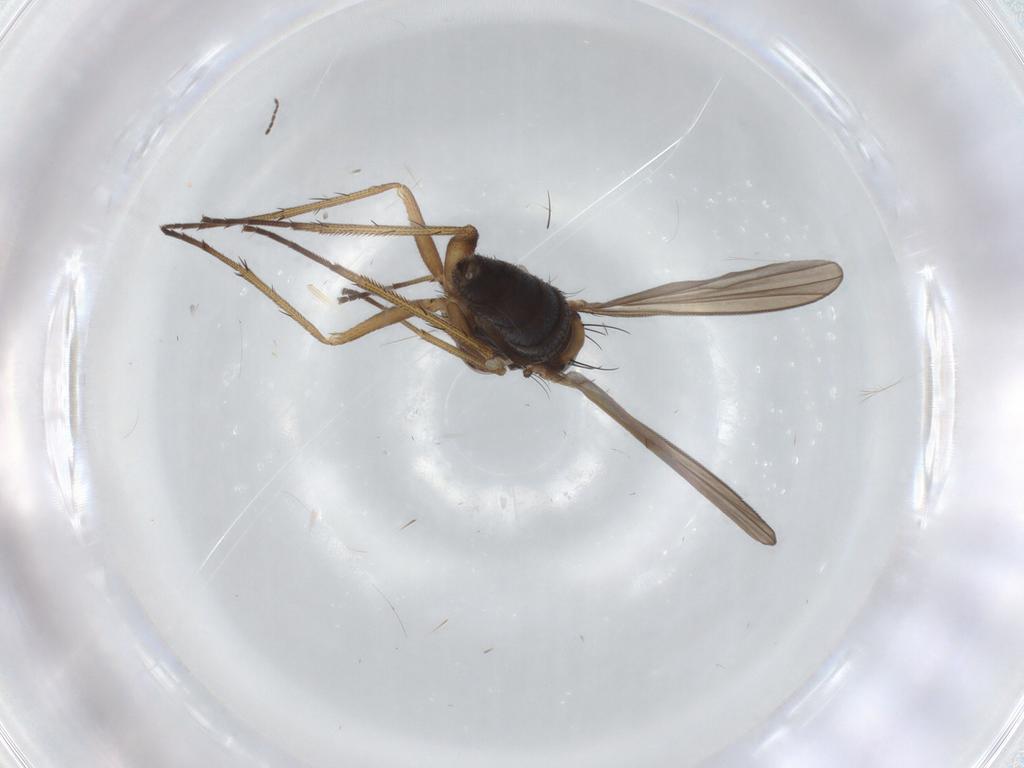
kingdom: Animalia
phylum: Arthropoda
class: Insecta
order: Diptera
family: Dolichopodidae
